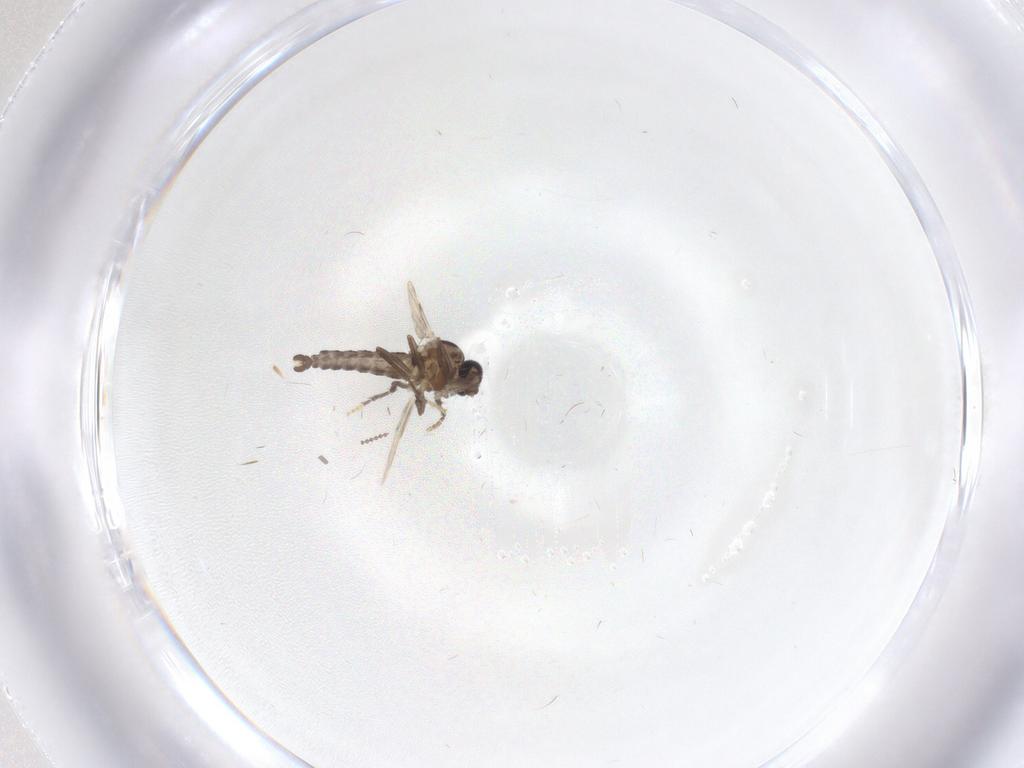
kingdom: Animalia
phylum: Arthropoda
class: Insecta
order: Diptera
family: Ceratopogonidae
